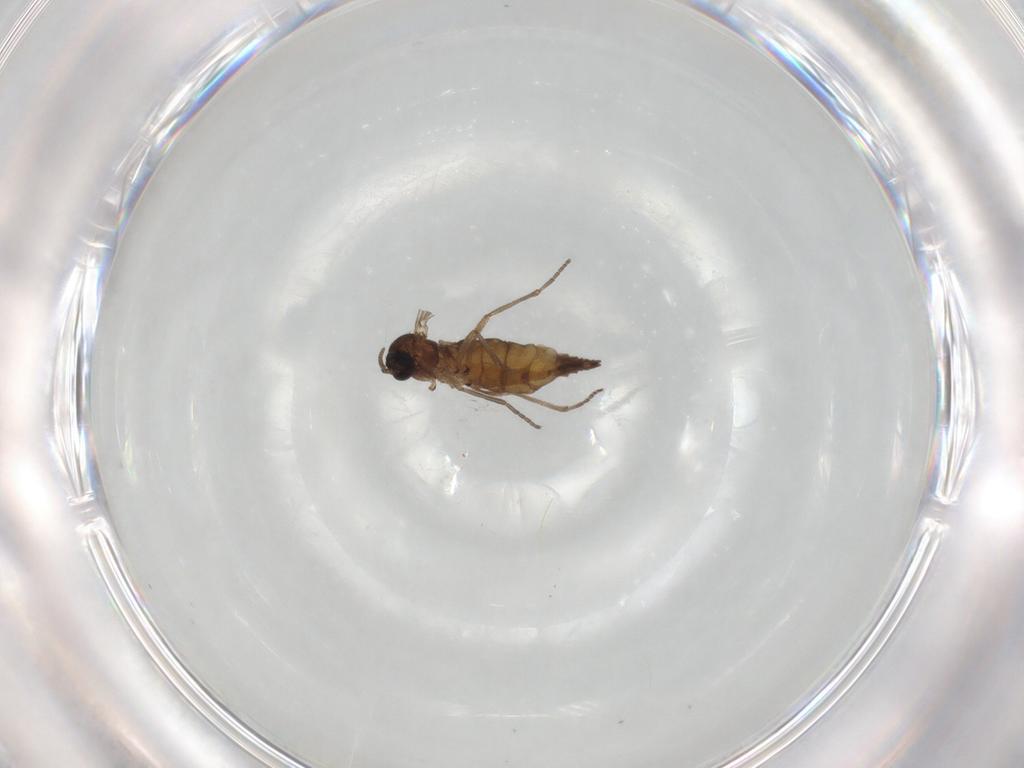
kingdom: Animalia
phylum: Arthropoda
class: Insecta
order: Diptera
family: Sciaridae
